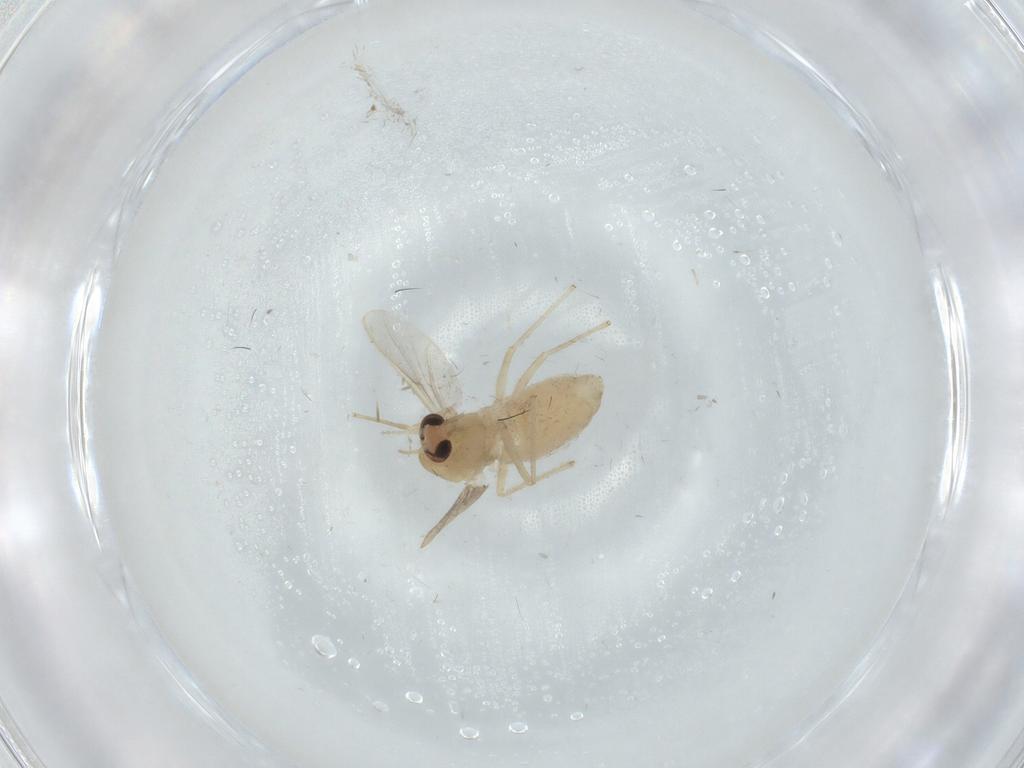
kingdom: Animalia
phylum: Arthropoda
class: Insecta
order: Diptera
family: Chironomidae
